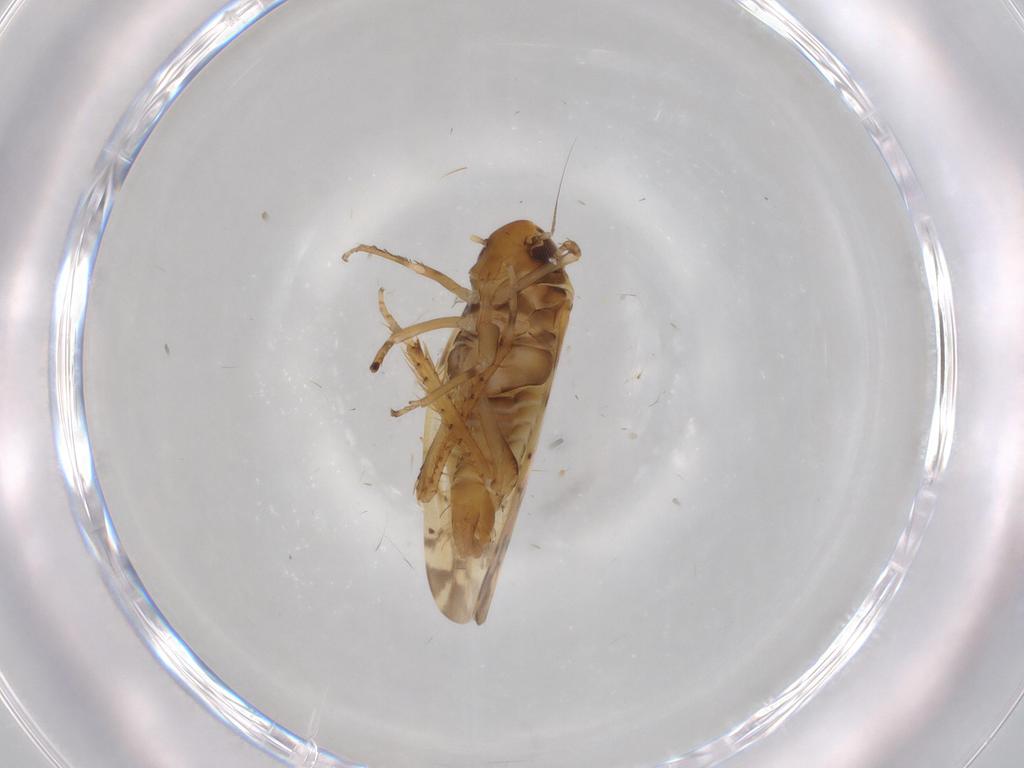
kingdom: Animalia
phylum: Arthropoda
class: Insecta
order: Hemiptera
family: Cicadellidae
